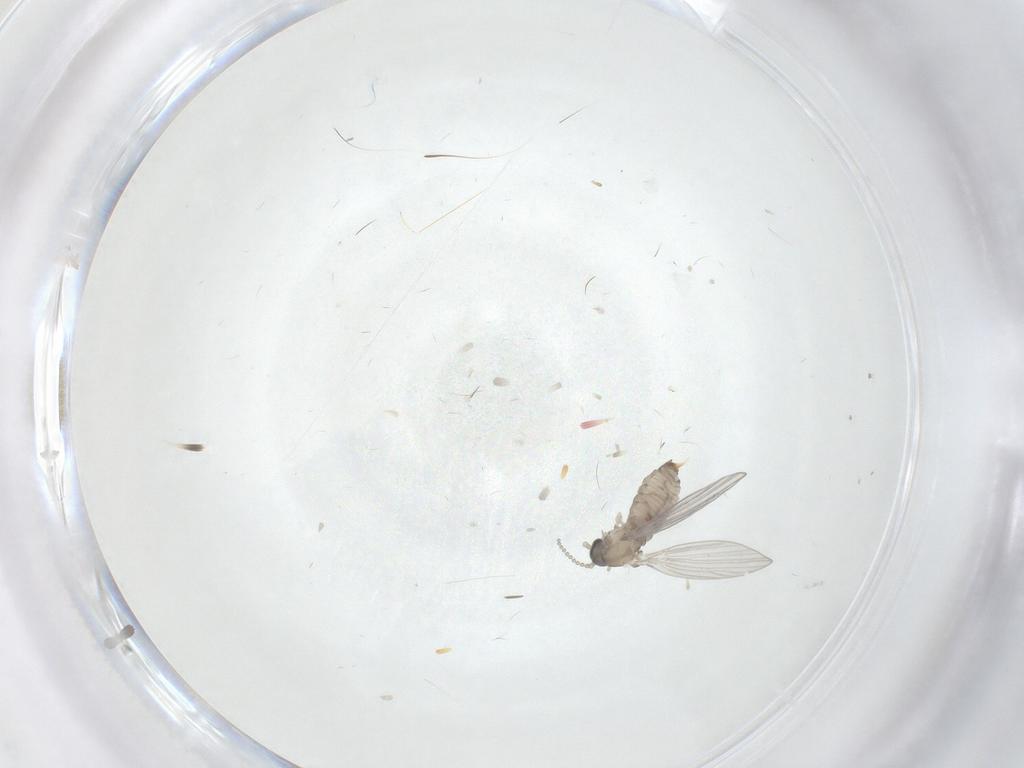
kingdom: Animalia
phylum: Arthropoda
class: Insecta
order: Diptera
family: Psychodidae
